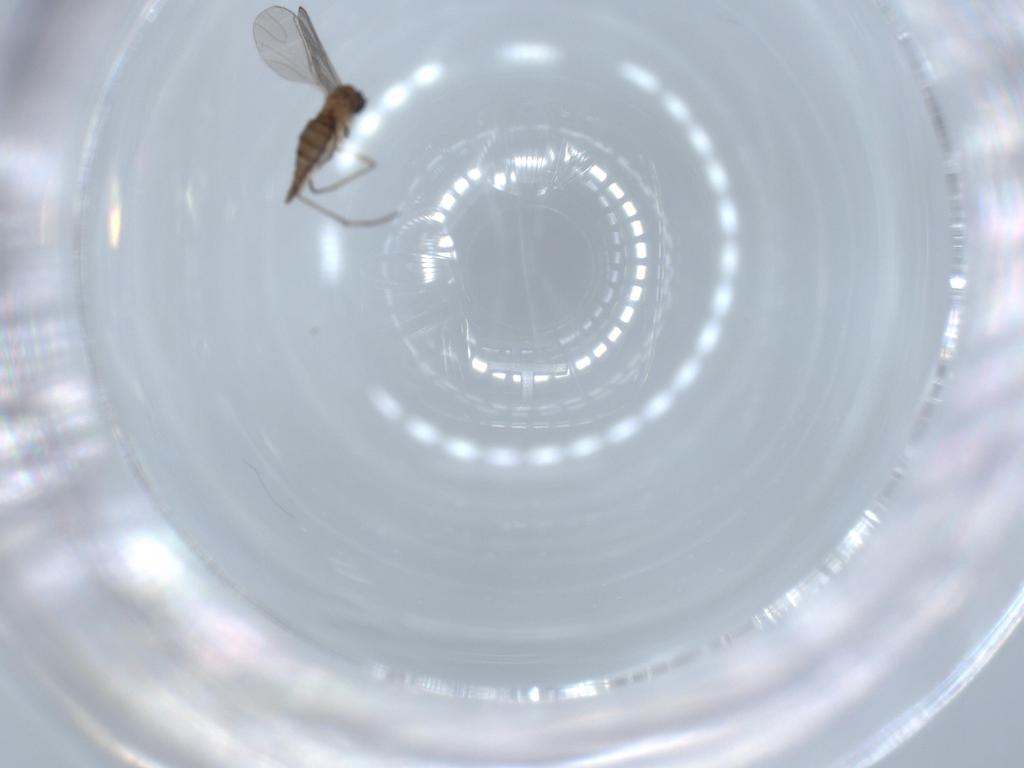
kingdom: Animalia
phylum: Arthropoda
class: Insecta
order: Diptera
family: Sciaridae
